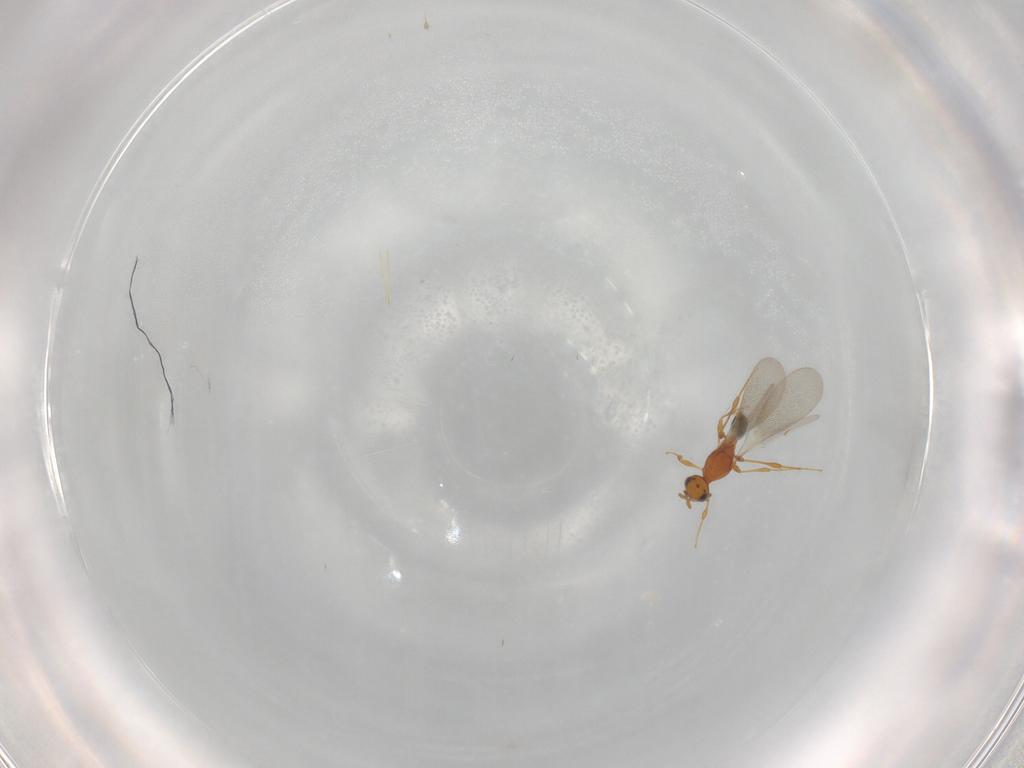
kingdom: Animalia
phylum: Arthropoda
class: Insecta
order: Hymenoptera
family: Platygastridae
